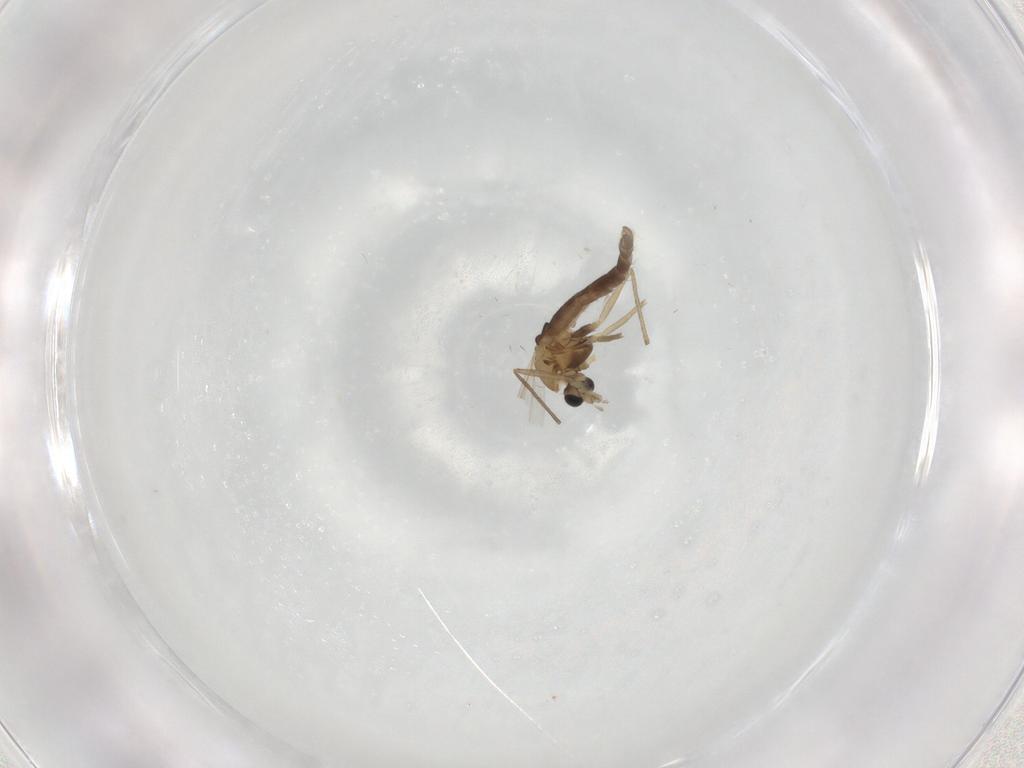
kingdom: Animalia
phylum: Arthropoda
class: Insecta
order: Diptera
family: Chironomidae
